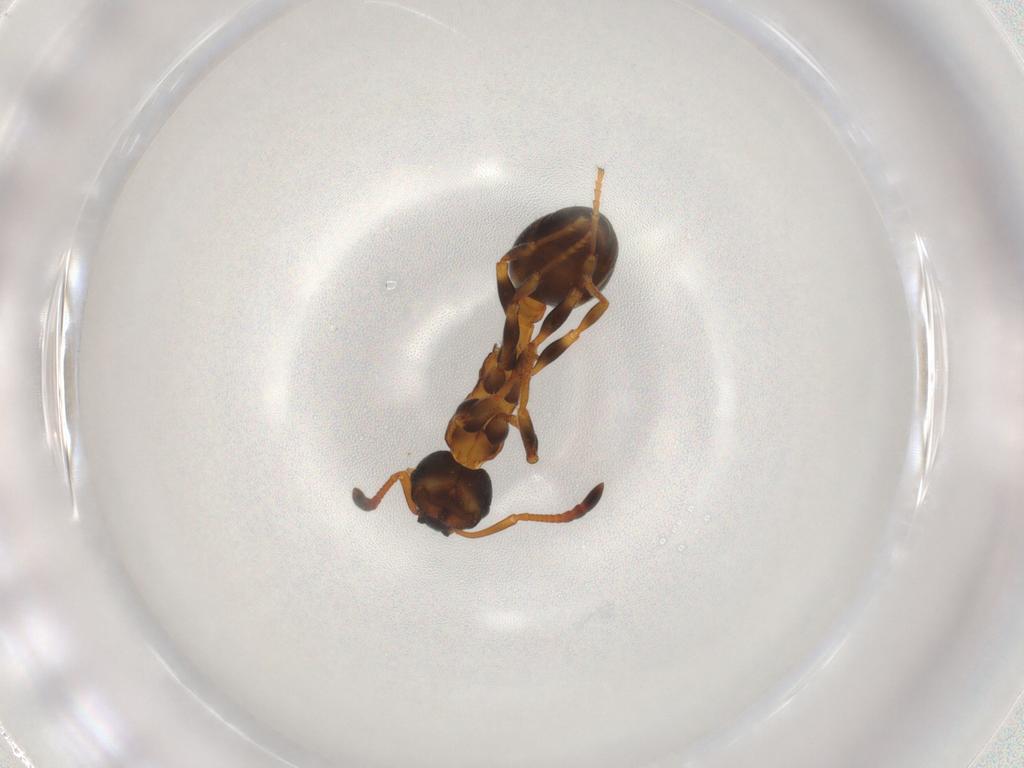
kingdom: Animalia
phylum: Arthropoda
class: Insecta
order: Hymenoptera
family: Formicidae
